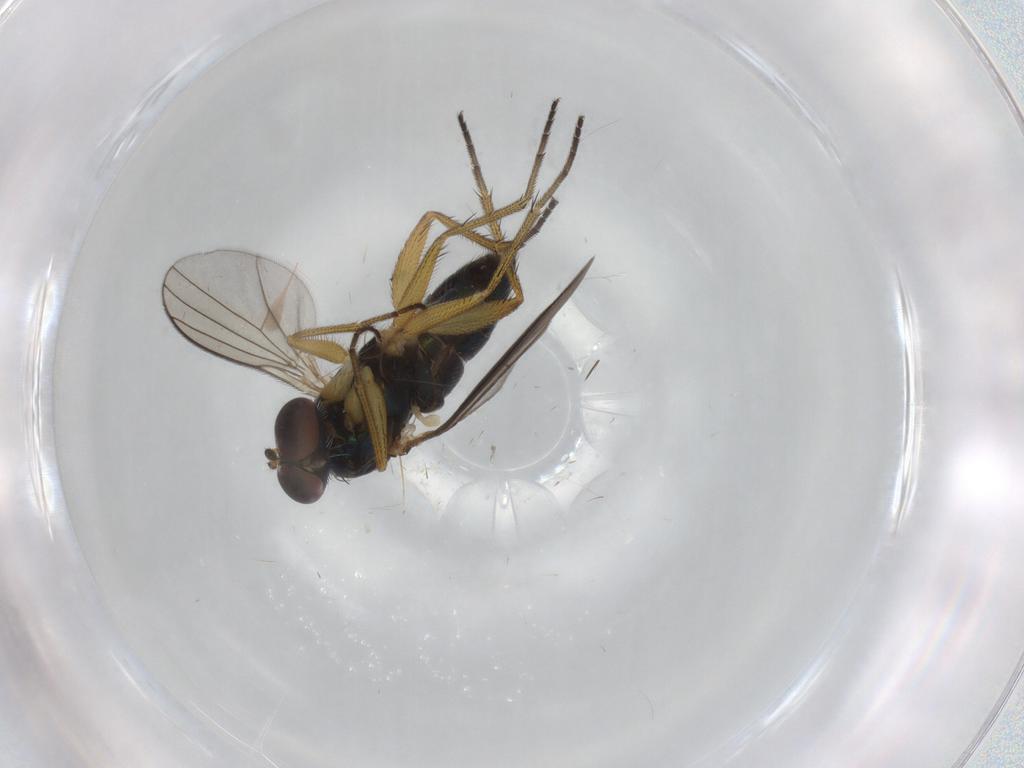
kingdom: Animalia
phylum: Arthropoda
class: Insecta
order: Diptera
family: Dolichopodidae
